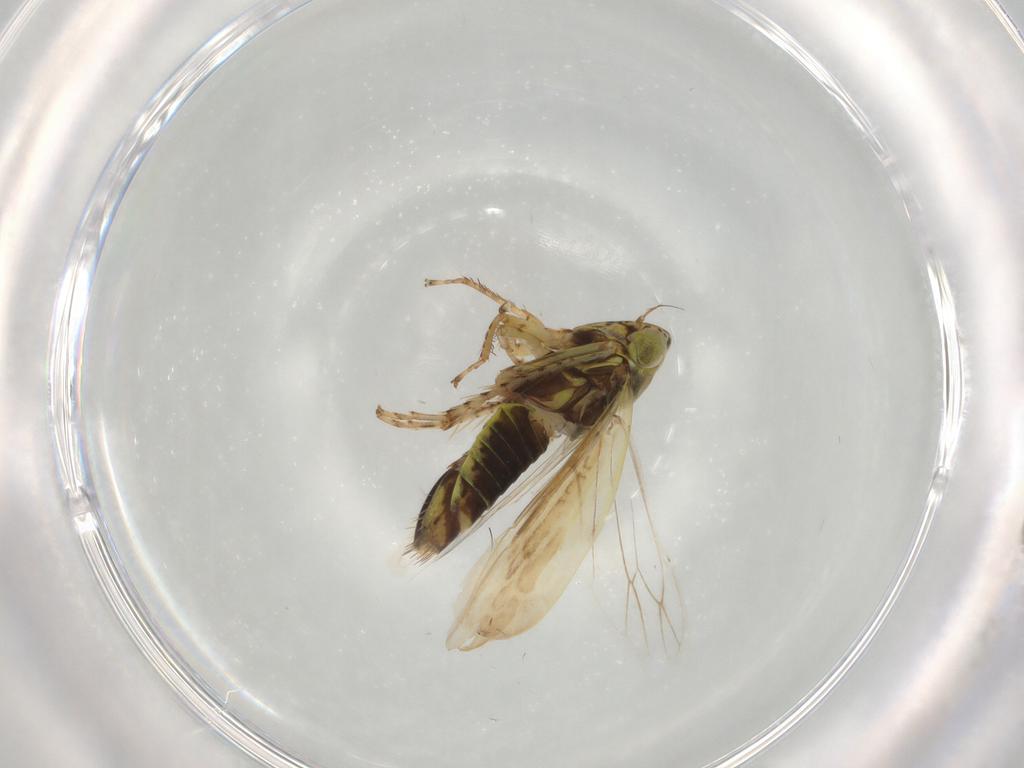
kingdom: Animalia
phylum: Arthropoda
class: Insecta
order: Hemiptera
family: Cicadellidae
